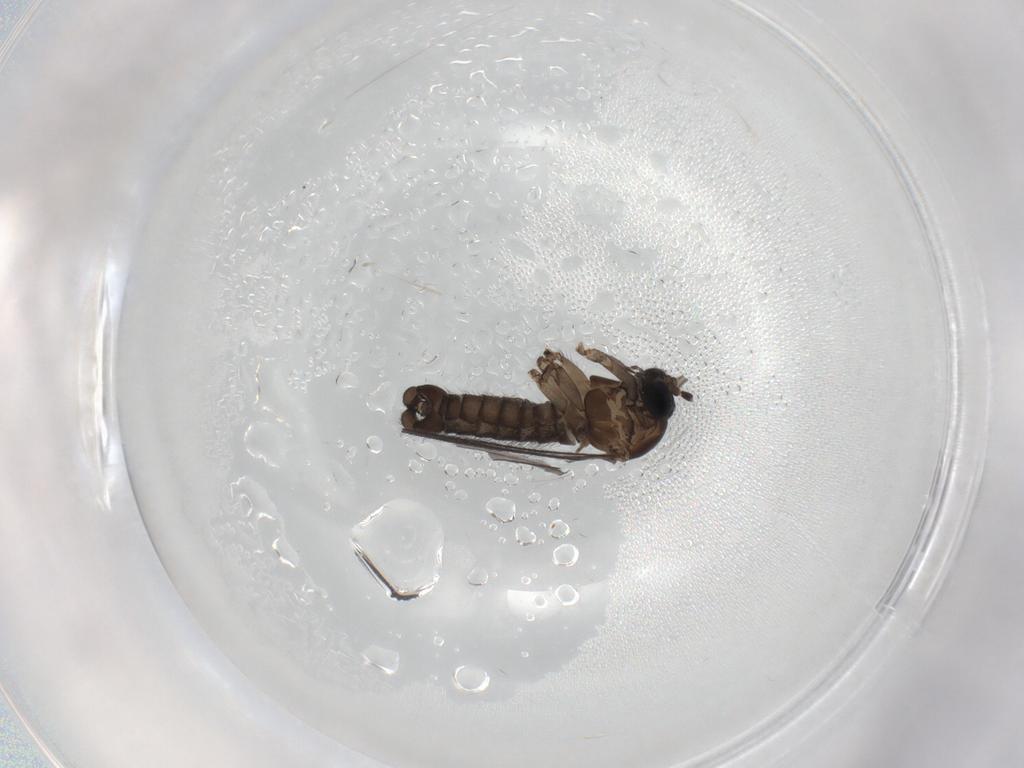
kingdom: Animalia
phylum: Arthropoda
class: Insecta
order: Diptera
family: Sciaridae
